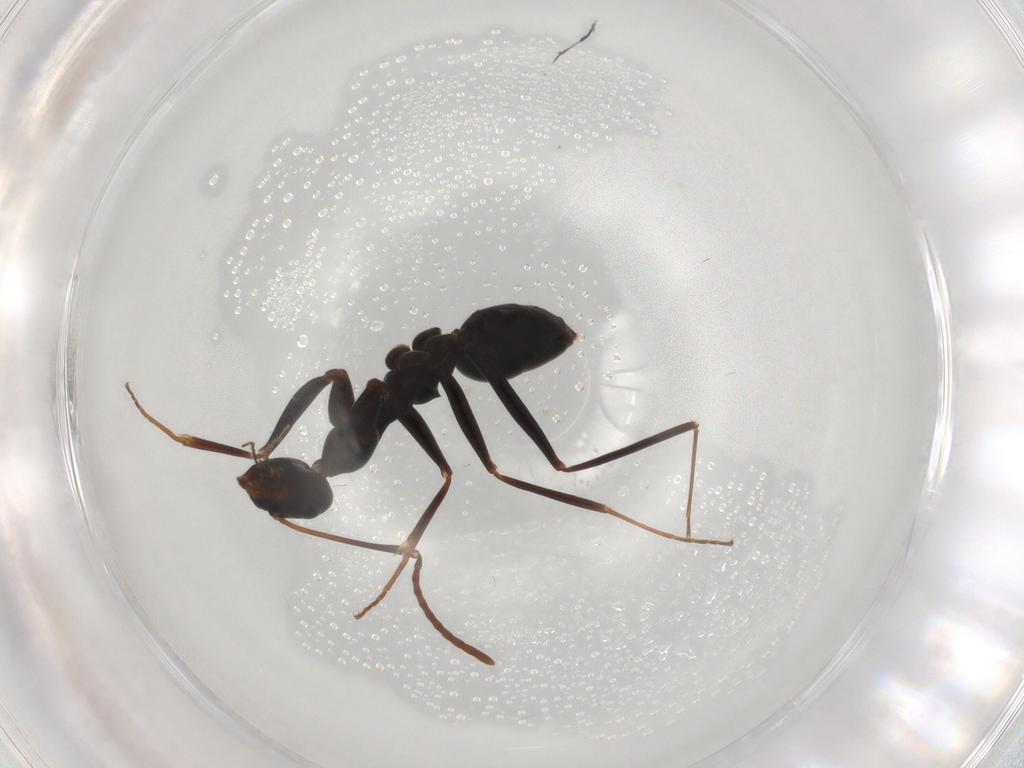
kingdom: Animalia
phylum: Arthropoda
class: Insecta
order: Hymenoptera
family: Formicidae
